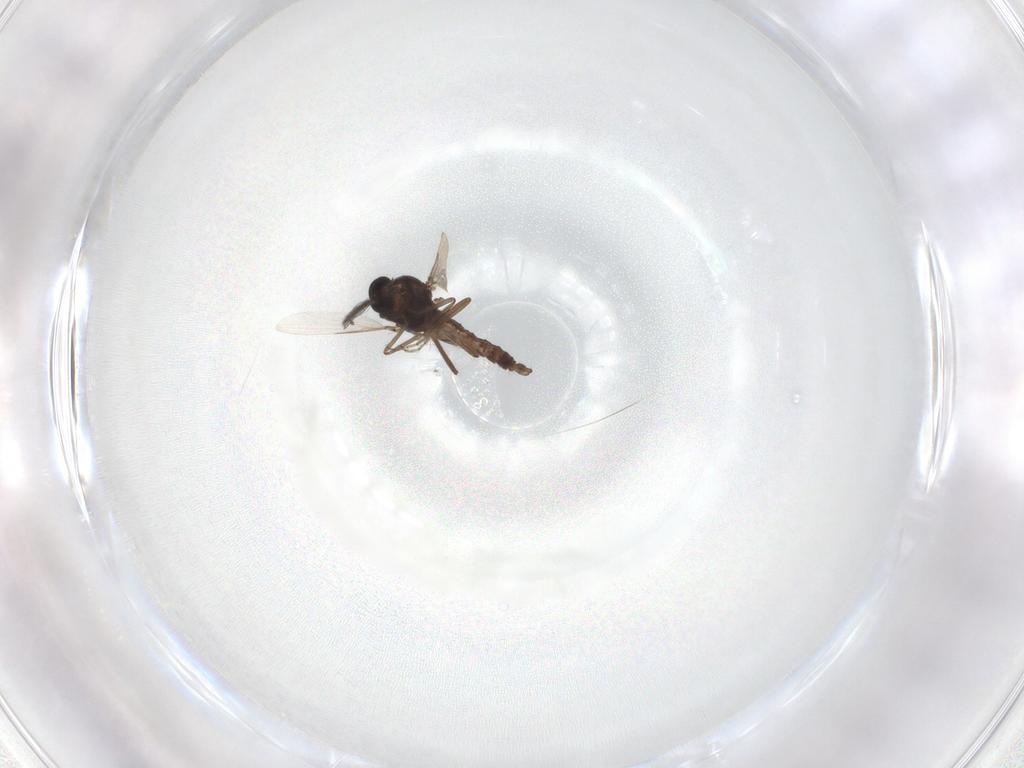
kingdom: Animalia
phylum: Arthropoda
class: Insecta
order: Diptera
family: Ceratopogonidae
